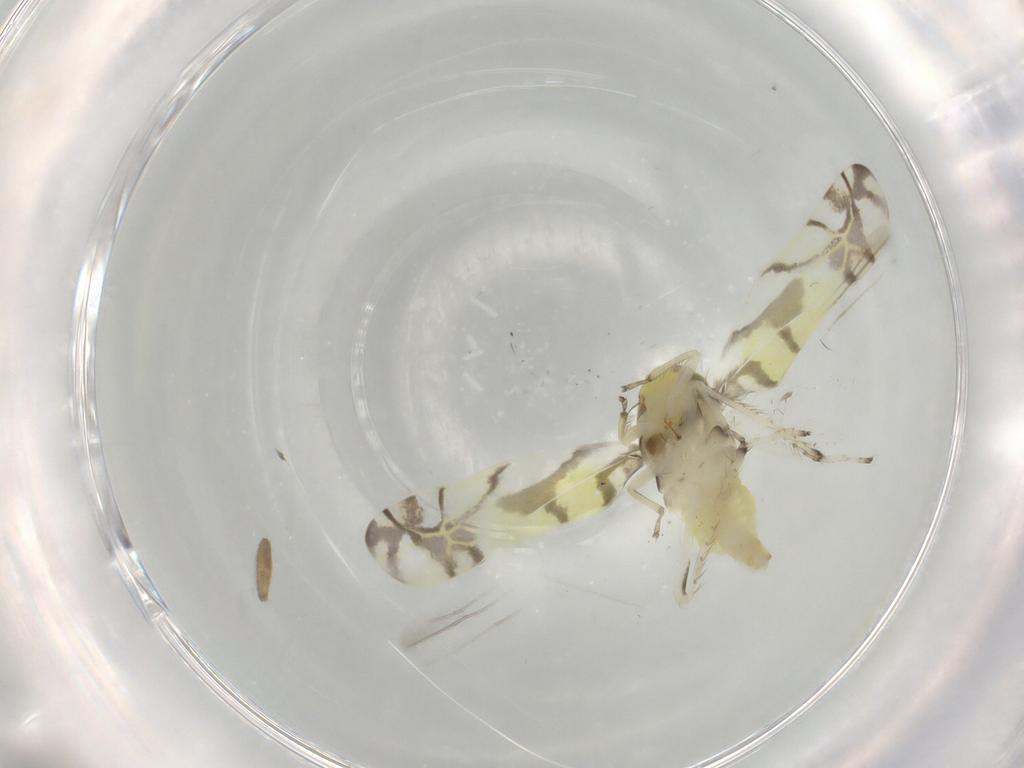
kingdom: Animalia
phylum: Arthropoda
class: Insecta
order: Hemiptera
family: Cicadellidae
